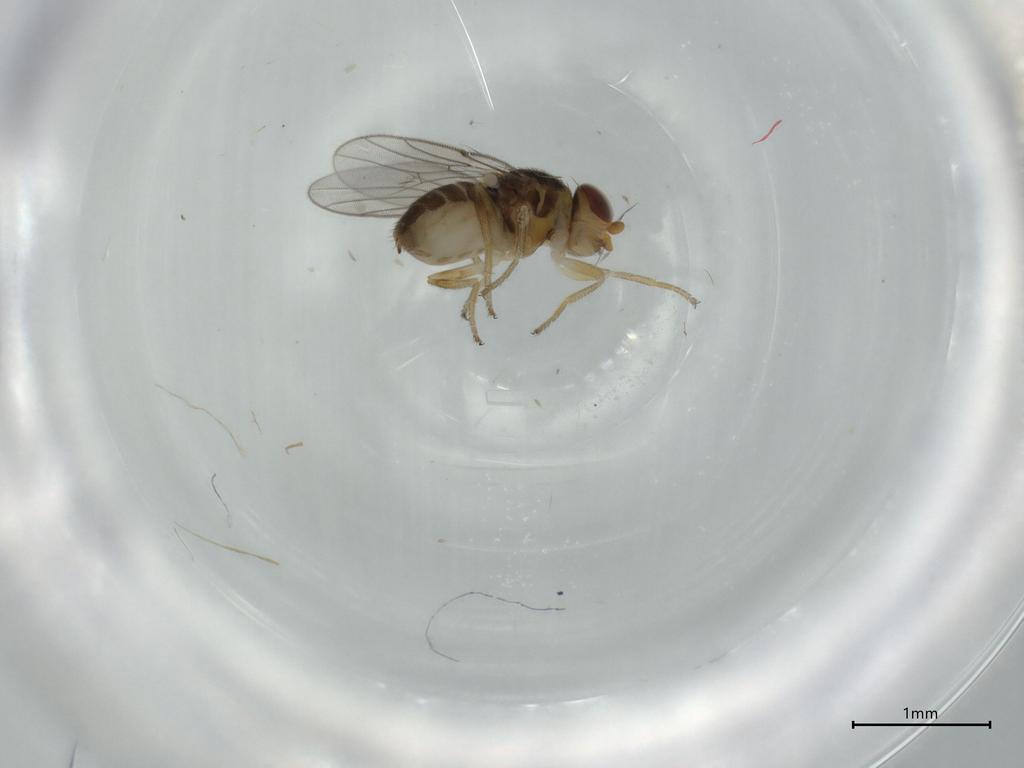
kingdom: Animalia
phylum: Arthropoda
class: Insecta
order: Diptera
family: Chloropidae
